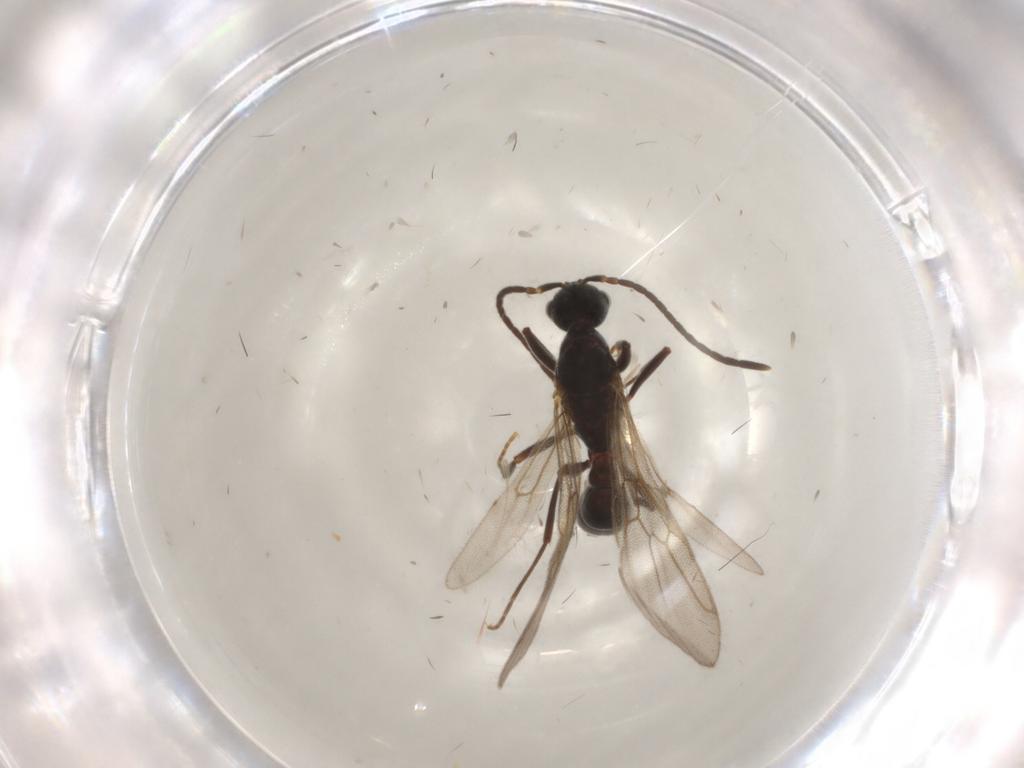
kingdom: Animalia
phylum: Arthropoda
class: Insecta
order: Hymenoptera
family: Formicidae
